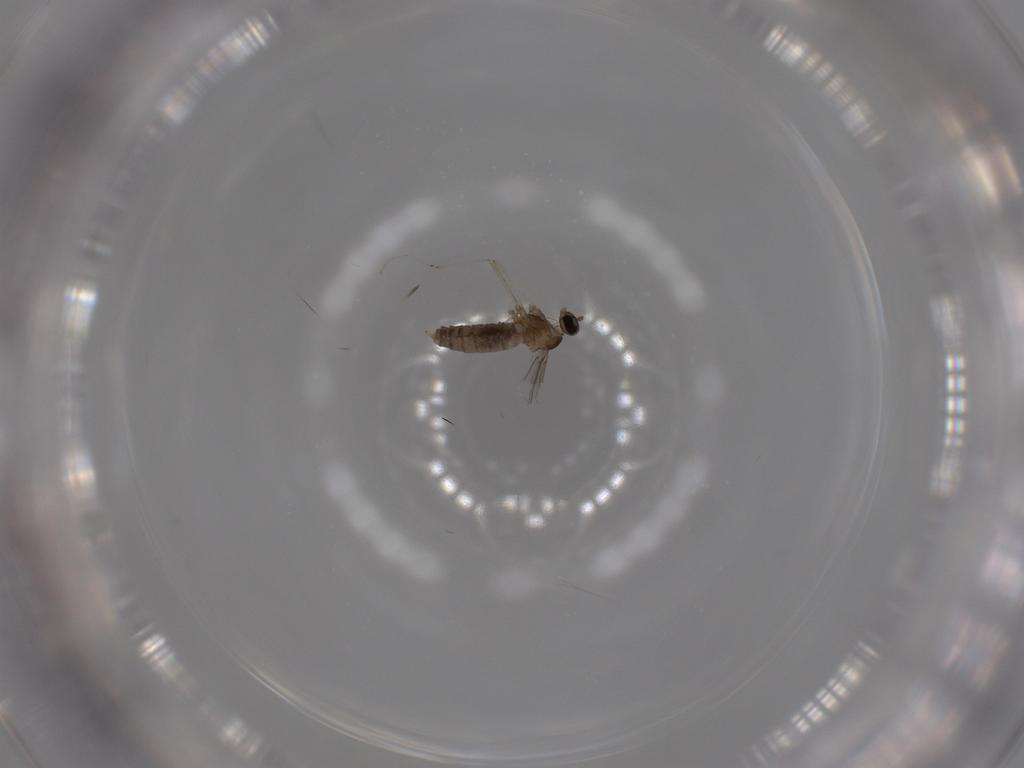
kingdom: Animalia
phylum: Arthropoda
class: Insecta
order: Diptera
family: Cecidomyiidae
